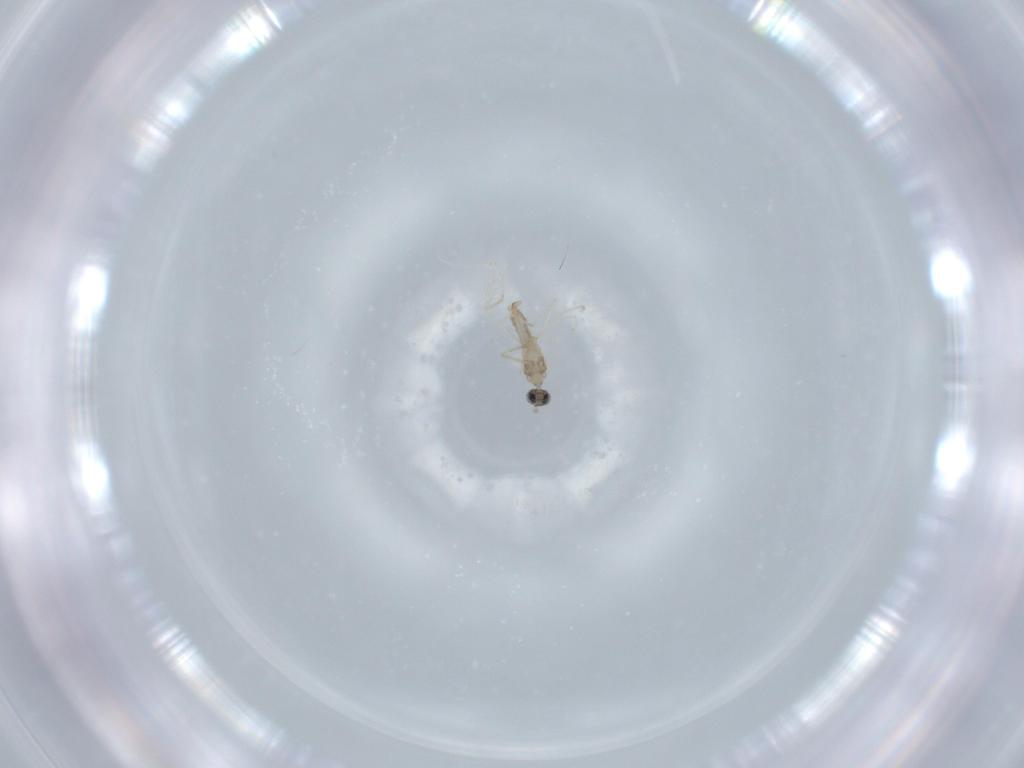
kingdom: Animalia
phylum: Arthropoda
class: Insecta
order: Diptera
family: Cecidomyiidae
